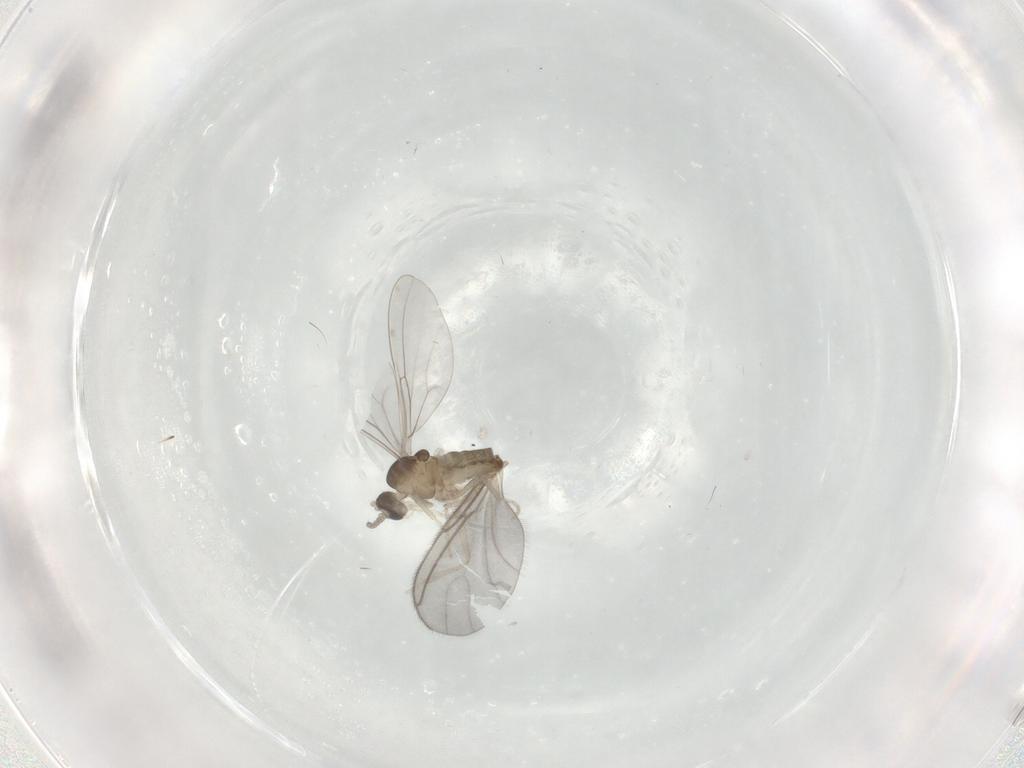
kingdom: Animalia
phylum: Arthropoda
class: Insecta
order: Diptera
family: Cecidomyiidae
